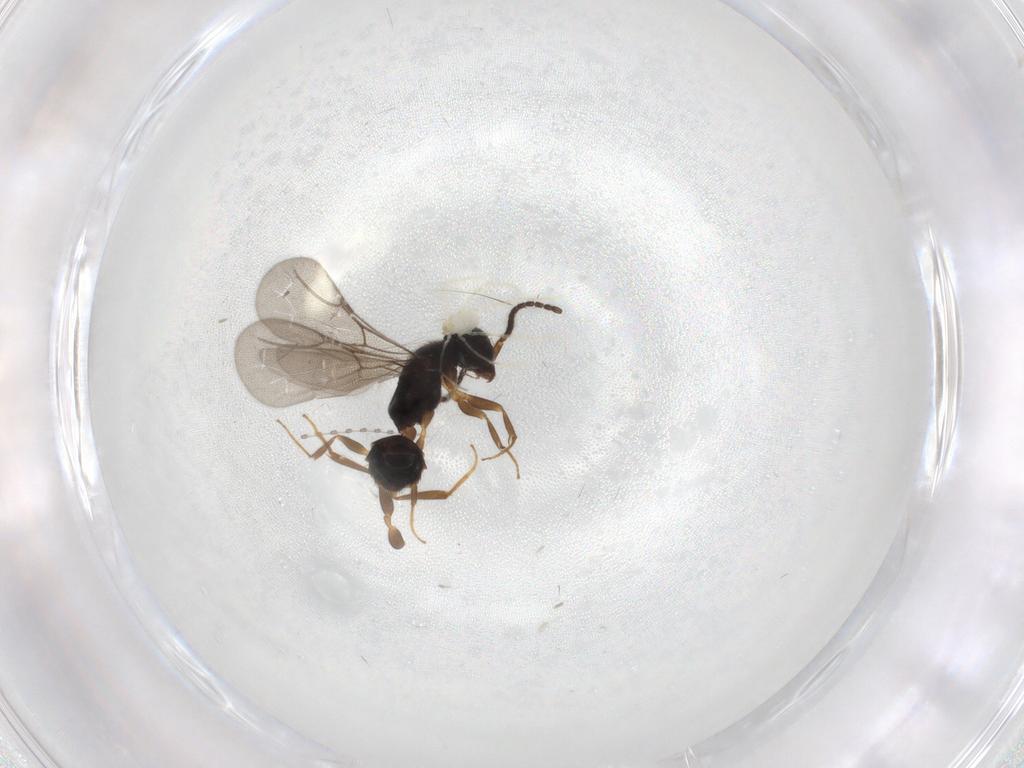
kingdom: Animalia
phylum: Arthropoda
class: Insecta
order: Hymenoptera
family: Bethylidae
